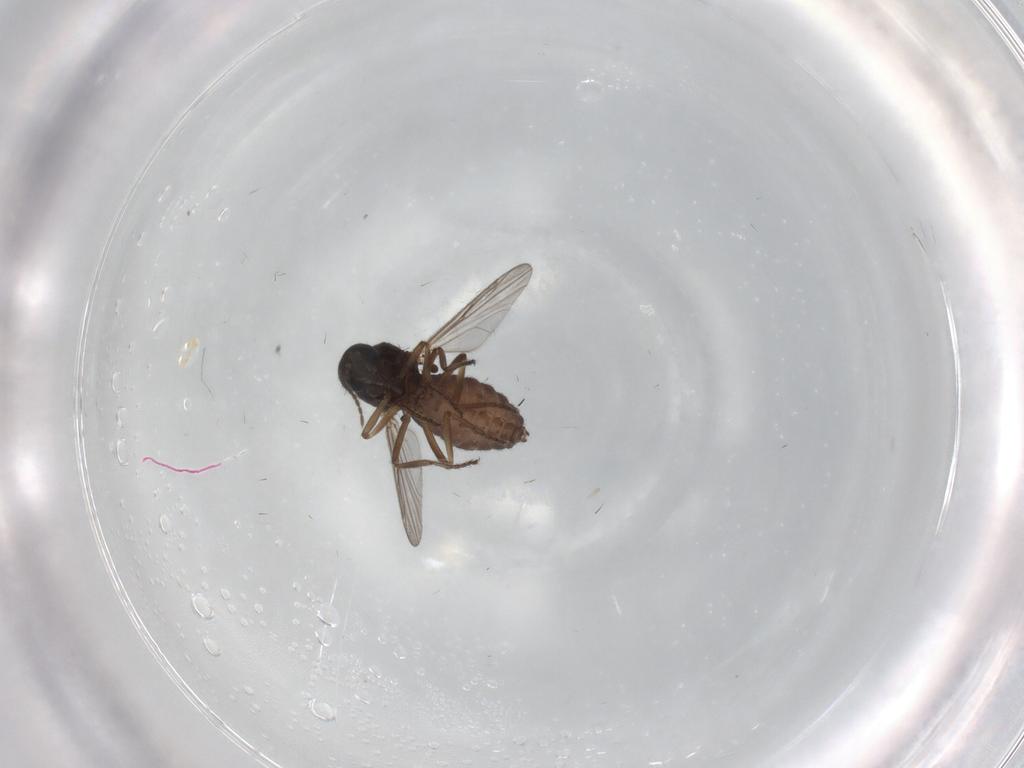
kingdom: Animalia
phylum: Arthropoda
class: Insecta
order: Diptera
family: Ceratopogonidae
